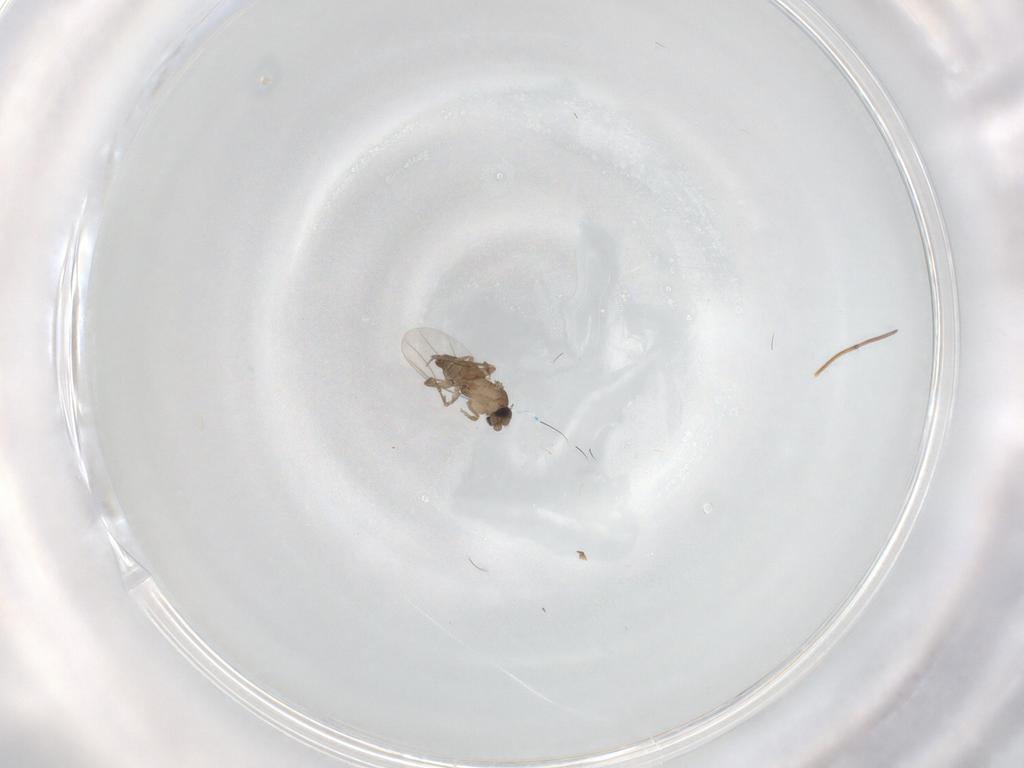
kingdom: Animalia
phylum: Arthropoda
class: Insecta
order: Diptera
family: Phoridae
